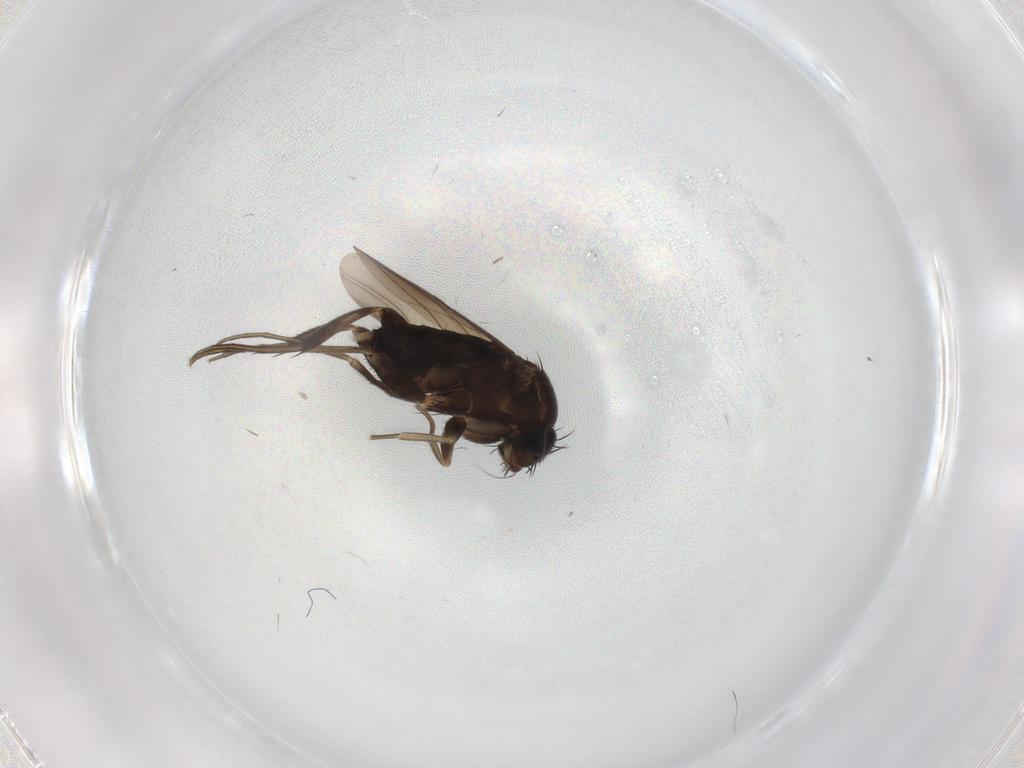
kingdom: Animalia
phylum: Arthropoda
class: Insecta
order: Diptera
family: Phoridae
